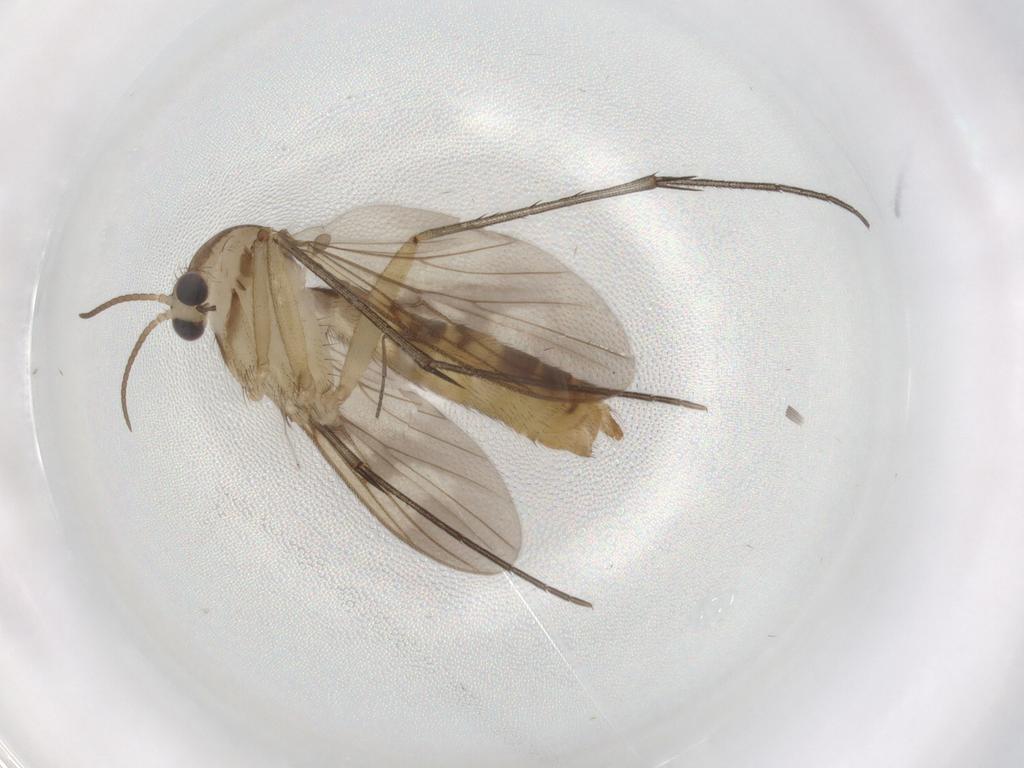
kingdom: Animalia
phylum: Arthropoda
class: Insecta
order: Diptera
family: Mycetophilidae
